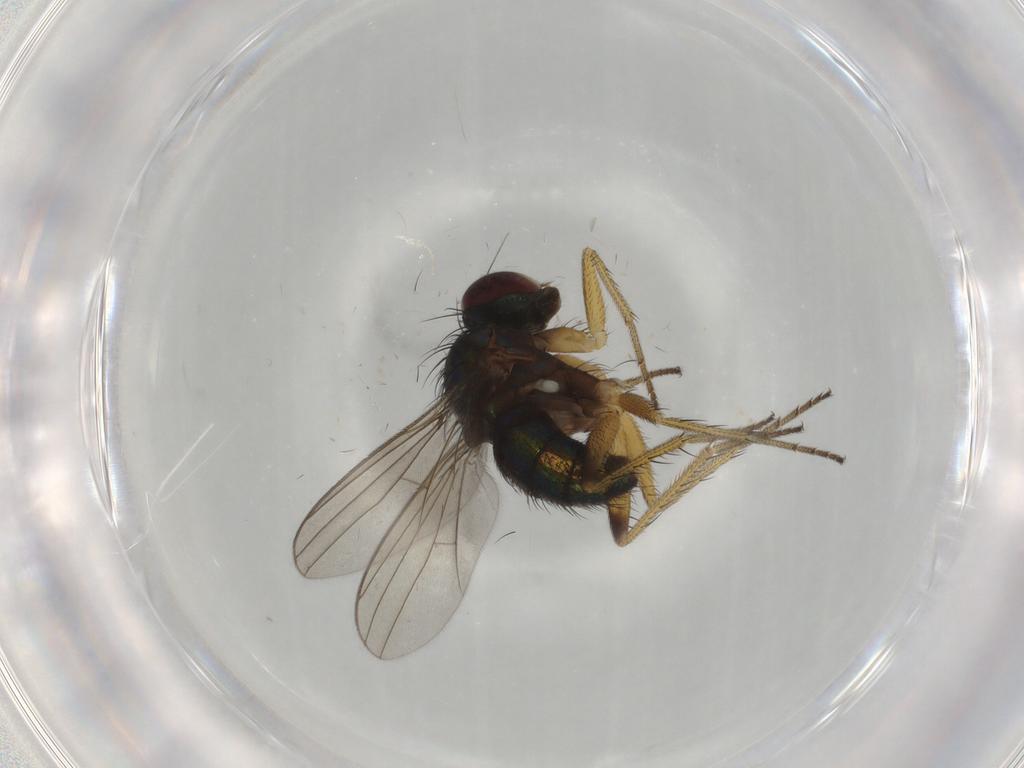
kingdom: Animalia
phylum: Arthropoda
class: Insecta
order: Diptera
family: Dolichopodidae
